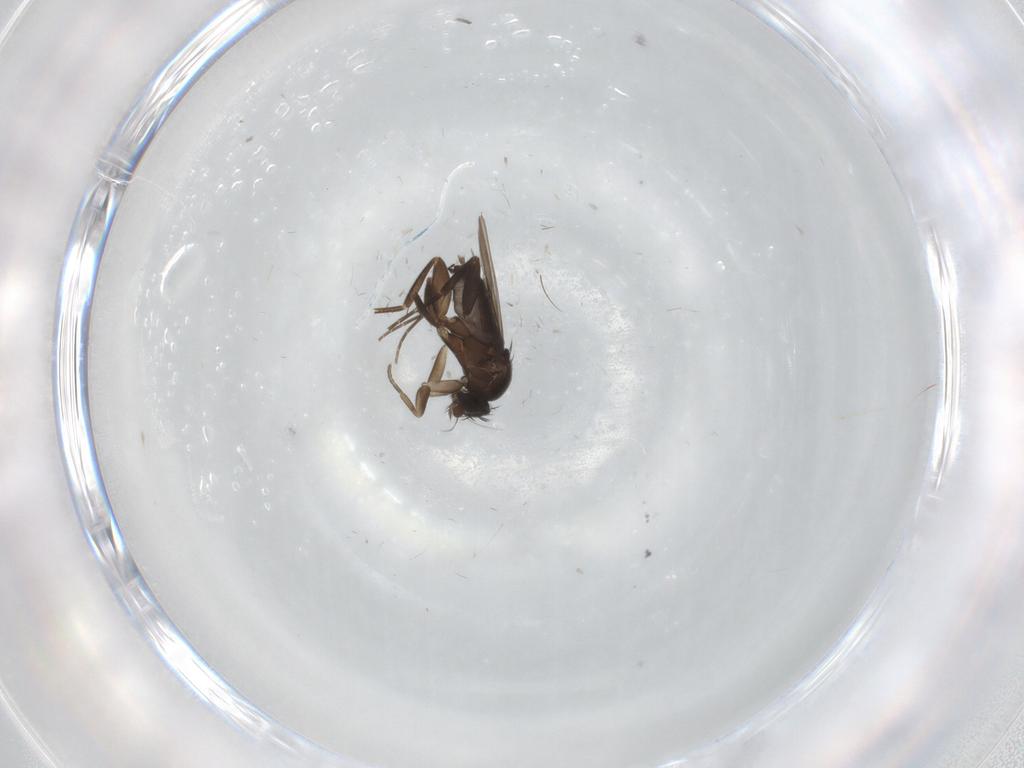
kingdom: Animalia
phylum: Arthropoda
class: Insecta
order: Diptera
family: Phoridae
